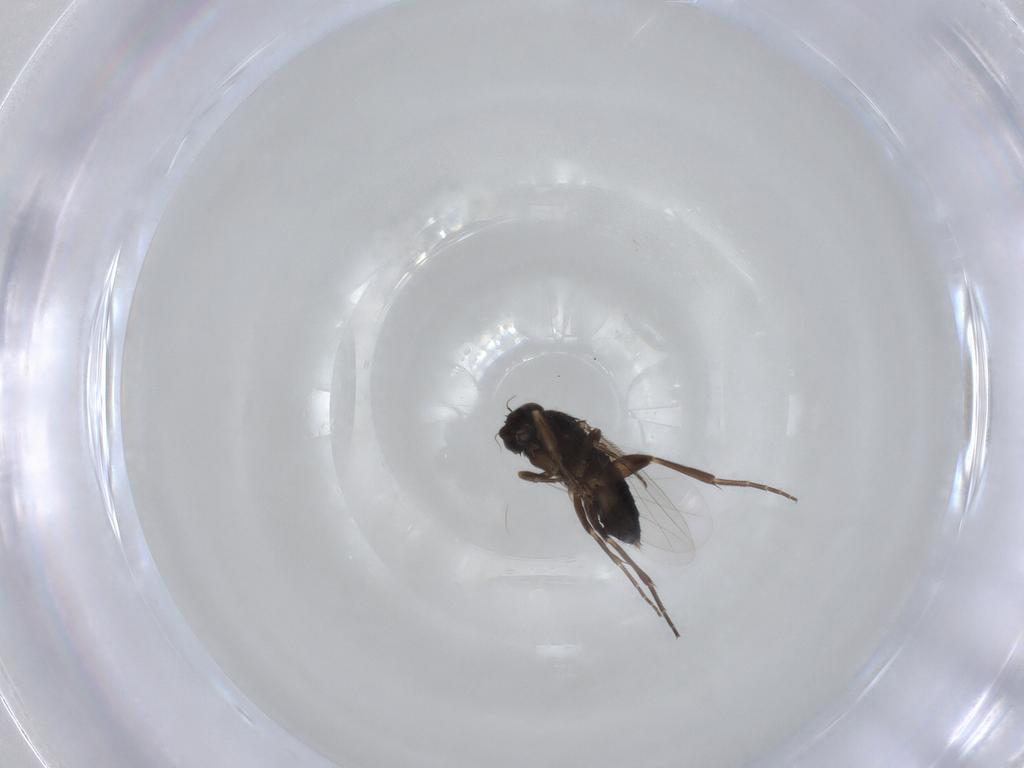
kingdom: Animalia
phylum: Arthropoda
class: Insecta
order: Diptera
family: Phoridae
